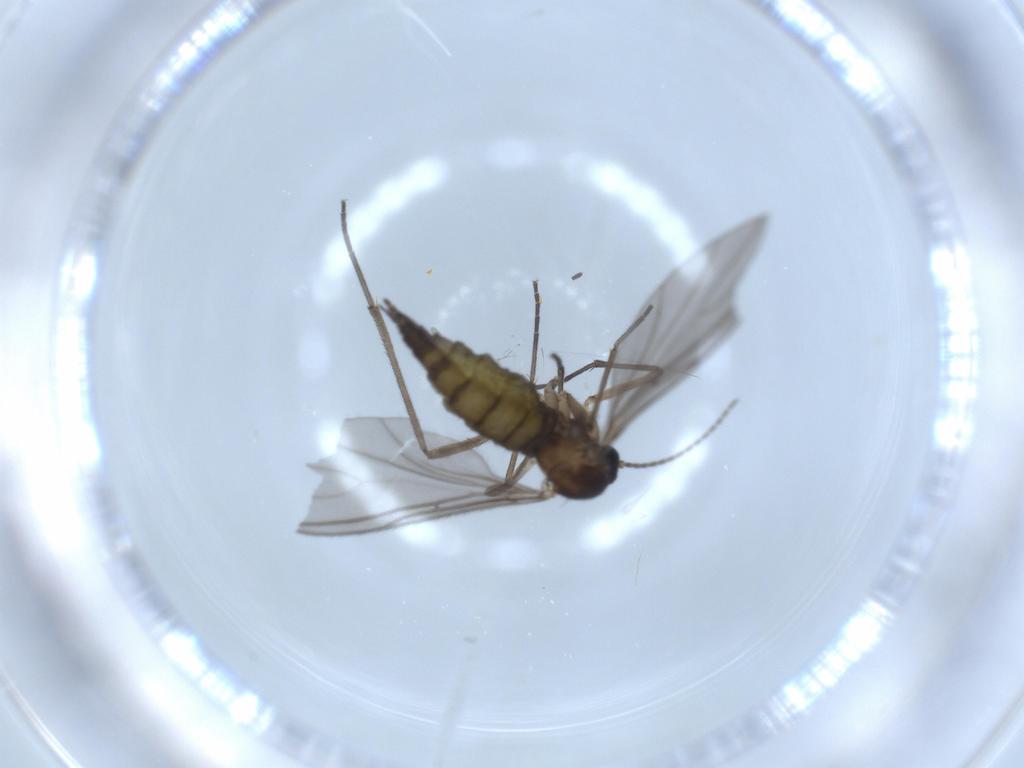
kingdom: Animalia
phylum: Arthropoda
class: Insecta
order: Diptera
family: Sciaridae
